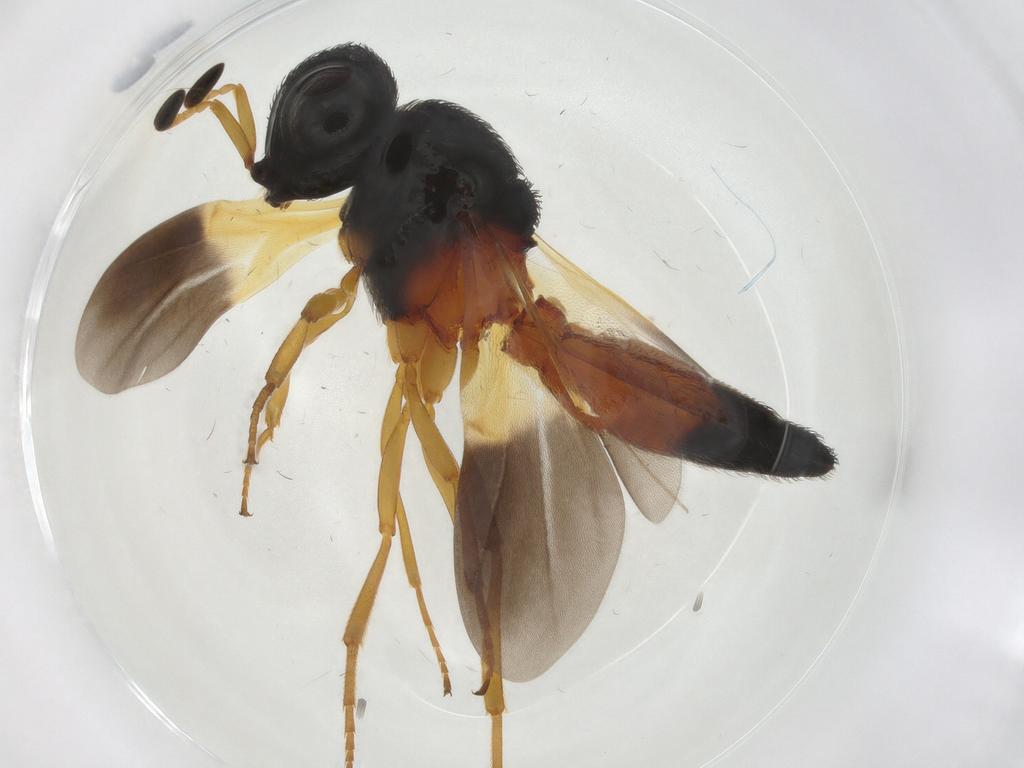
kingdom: Animalia
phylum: Arthropoda
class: Insecta
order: Hymenoptera
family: Scelionidae
